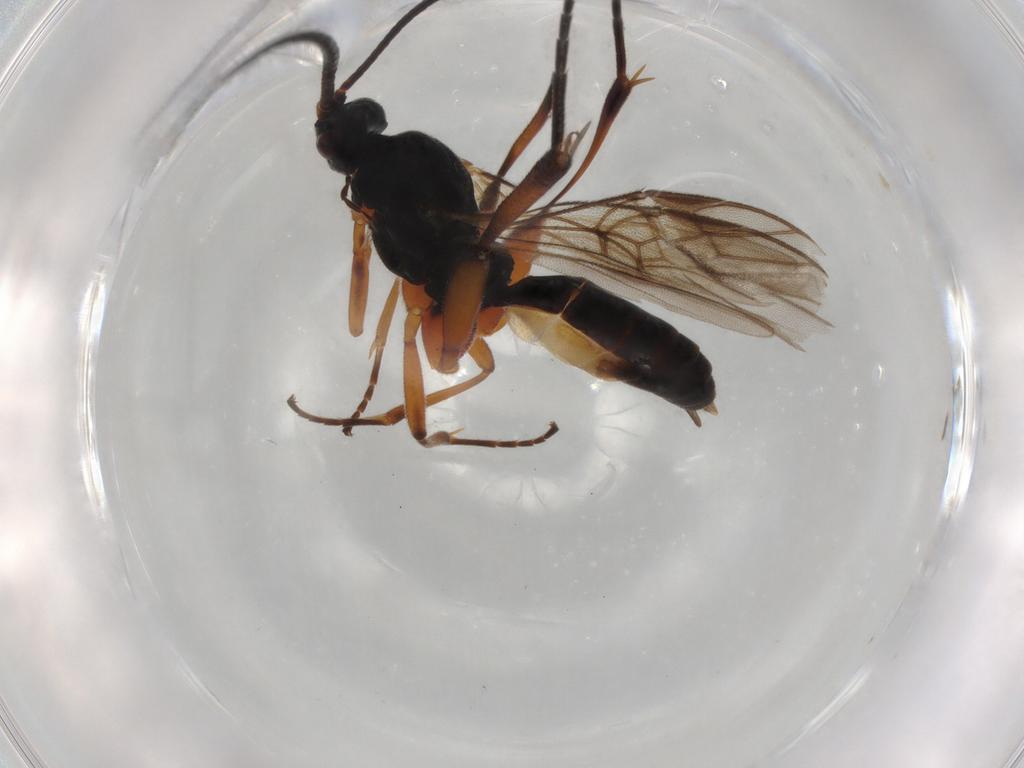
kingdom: Animalia
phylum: Arthropoda
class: Insecta
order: Hymenoptera
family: Braconidae
